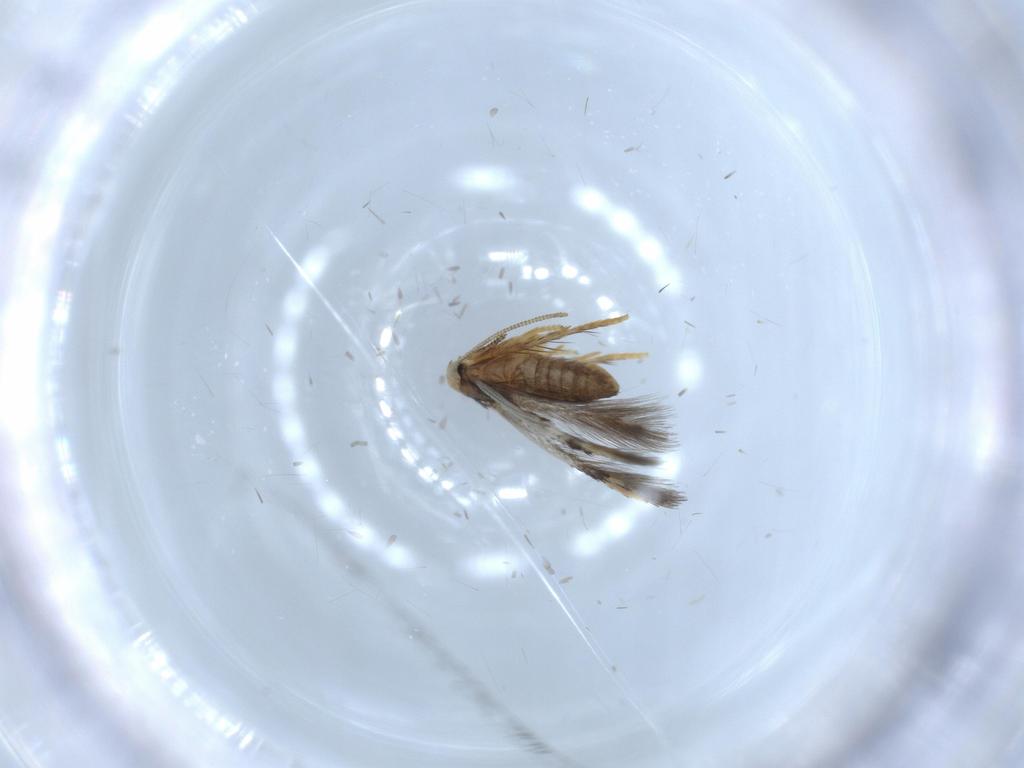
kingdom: Animalia
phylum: Arthropoda
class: Insecta
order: Lepidoptera
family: Nepticulidae
